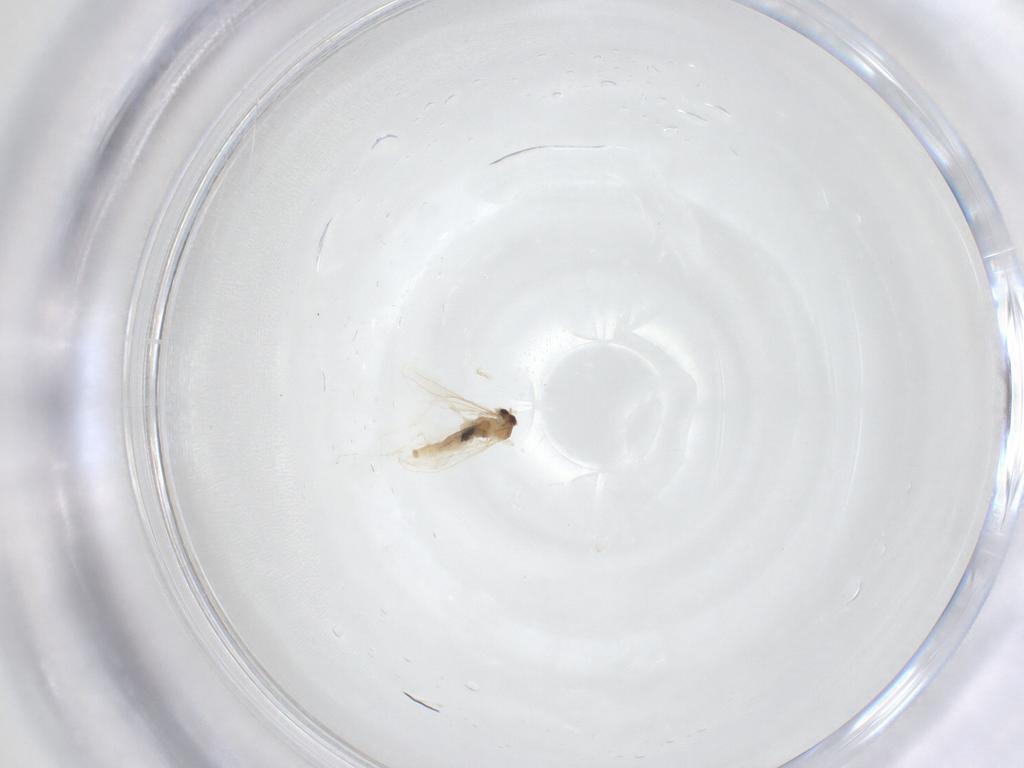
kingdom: Animalia
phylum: Arthropoda
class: Insecta
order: Diptera
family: Cecidomyiidae
